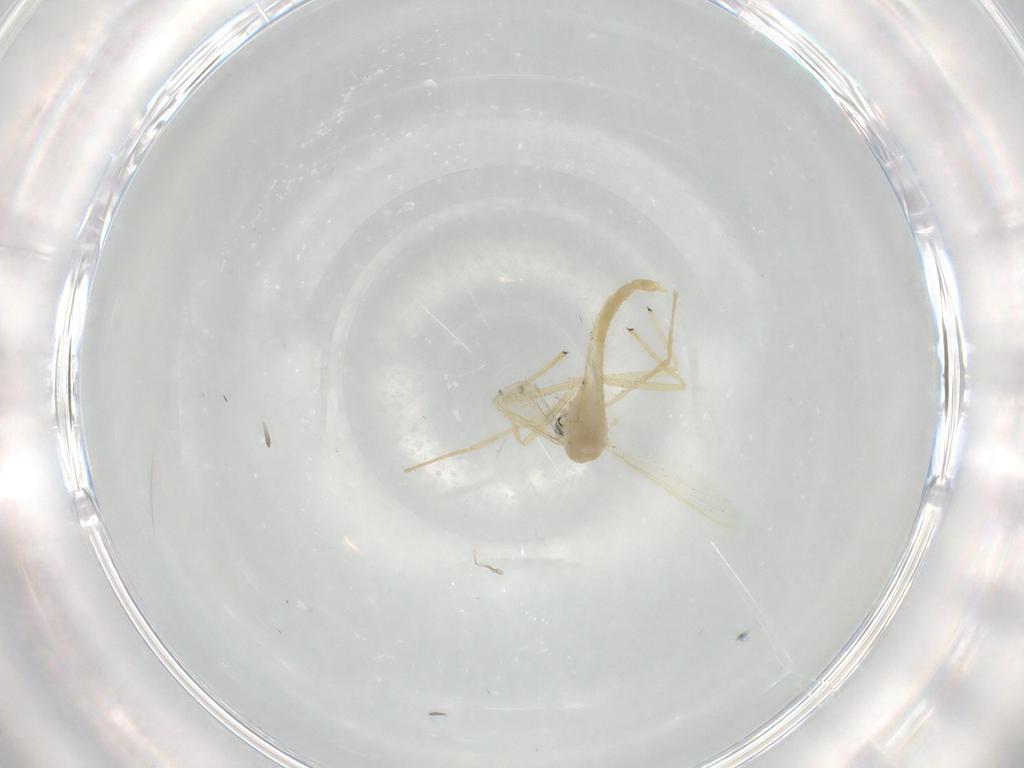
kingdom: Animalia
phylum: Arthropoda
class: Insecta
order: Diptera
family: Chironomidae
